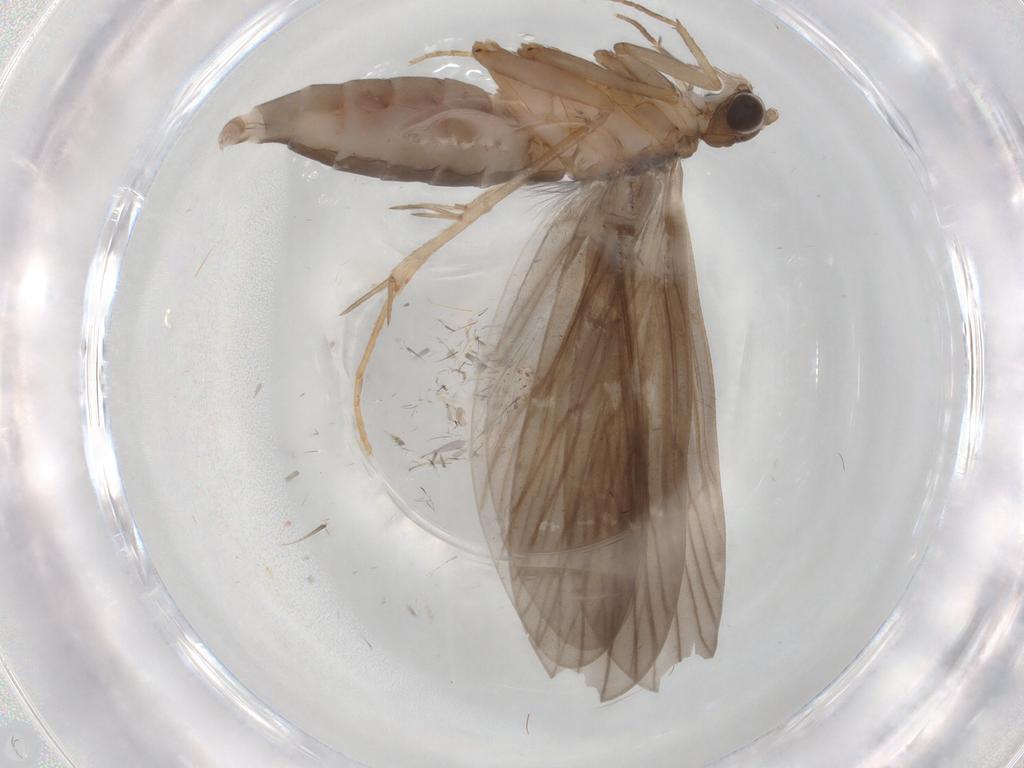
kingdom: Animalia
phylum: Arthropoda
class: Insecta
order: Trichoptera
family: Philopotamidae
